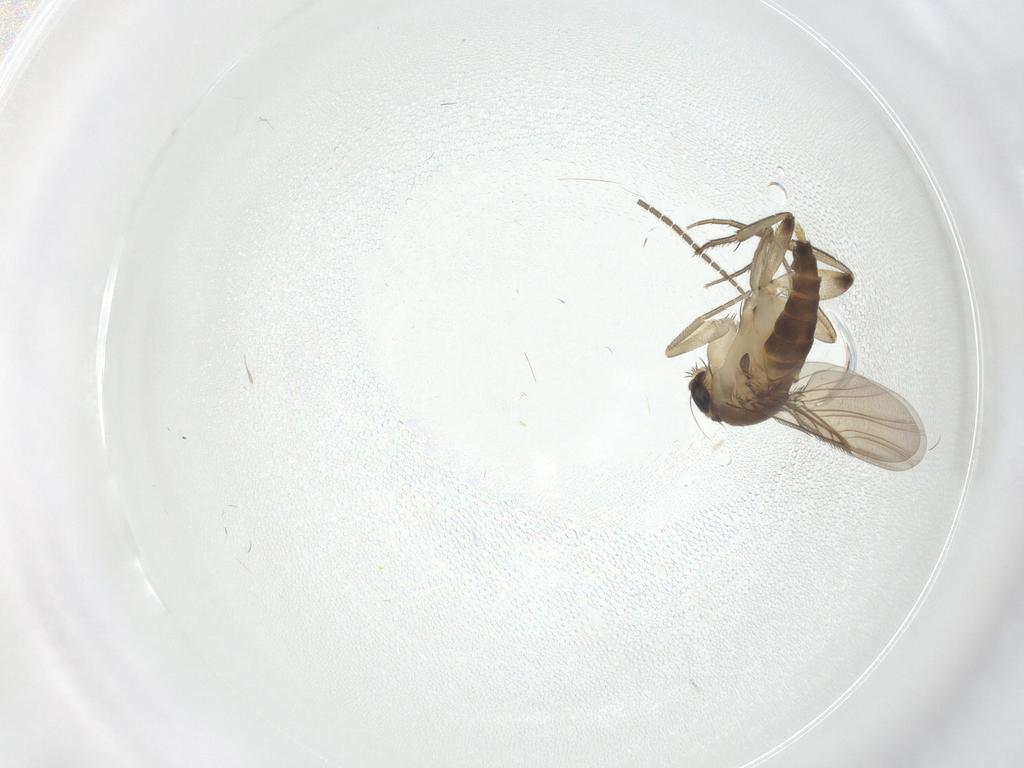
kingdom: Animalia
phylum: Arthropoda
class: Insecta
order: Diptera
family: Sciaridae
